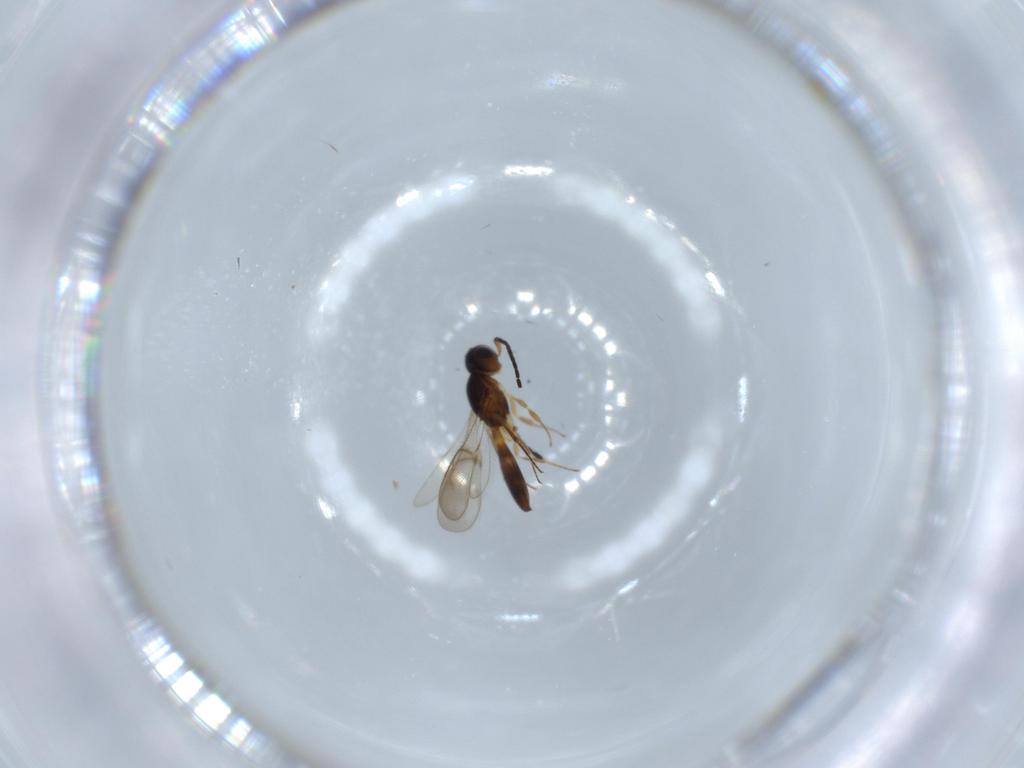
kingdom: Animalia
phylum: Arthropoda
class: Insecta
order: Hymenoptera
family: Scelionidae
